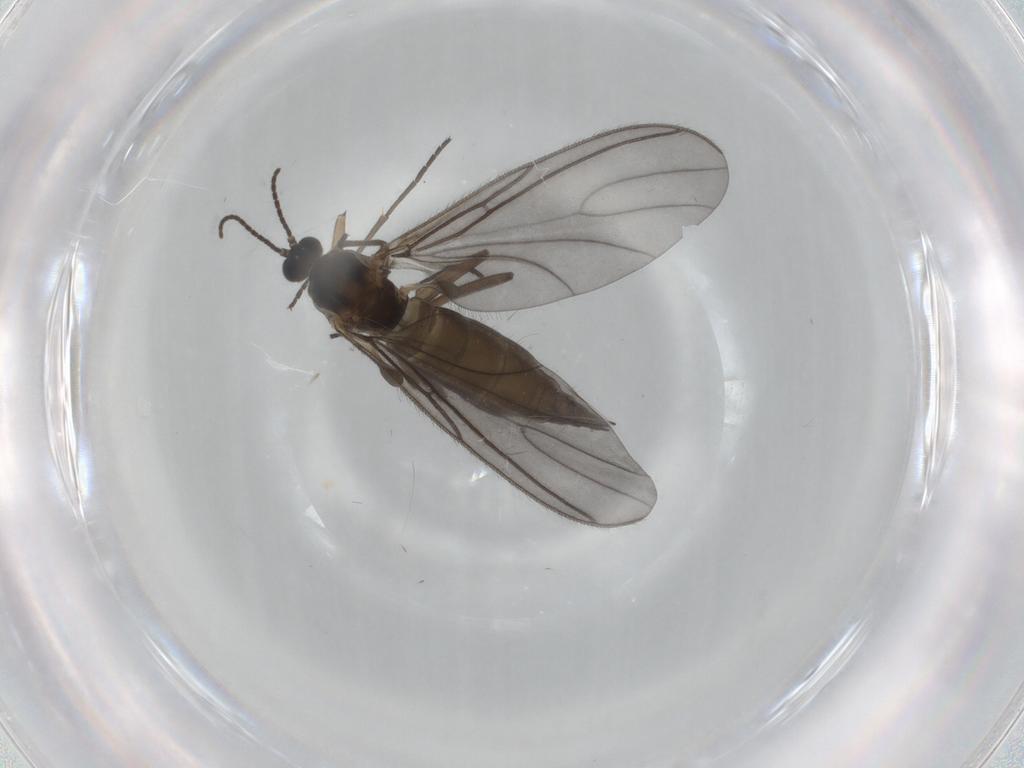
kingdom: Animalia
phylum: Arthropoda
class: Insecta
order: Diptera
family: Sciaridae
